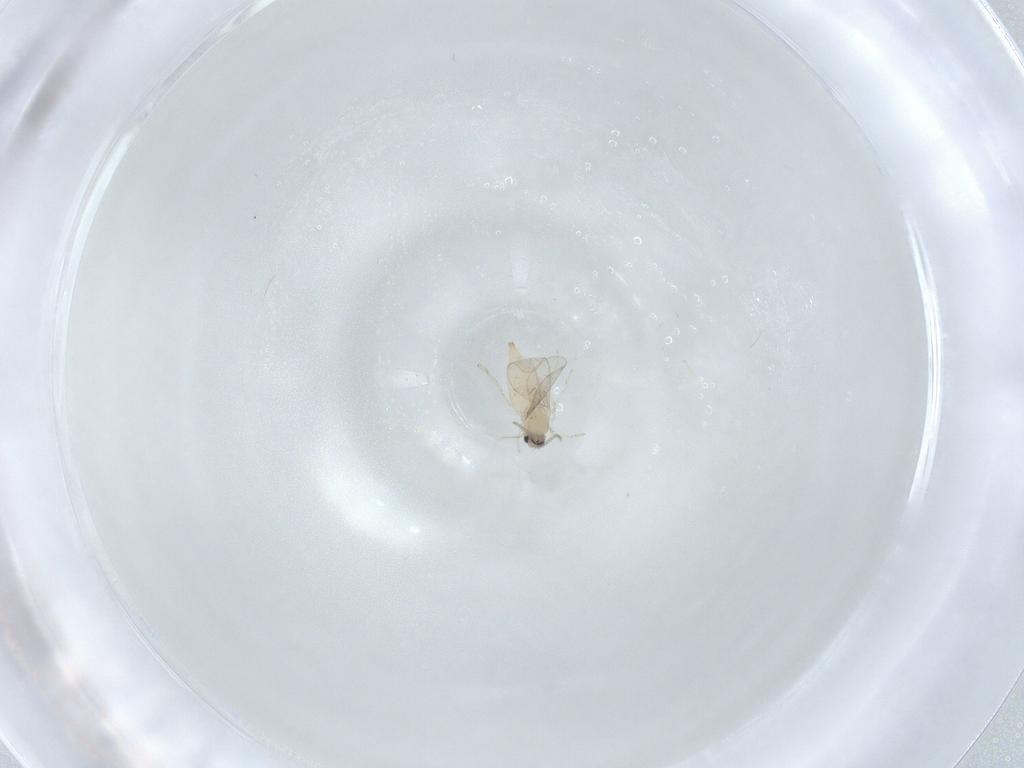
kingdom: Animalia
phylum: Arthropoda
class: Insecta
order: Diptera
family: Cecidomyiidae
